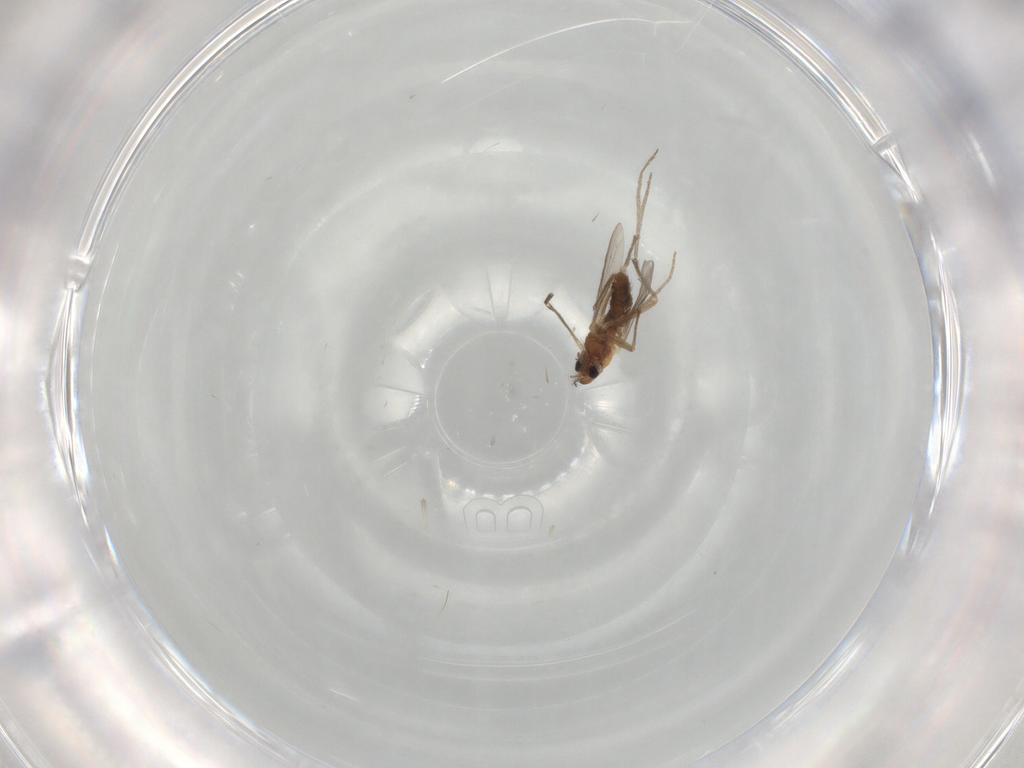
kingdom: Animalia
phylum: Arthropoda
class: Insecta
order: Diptera
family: Chironomidae
